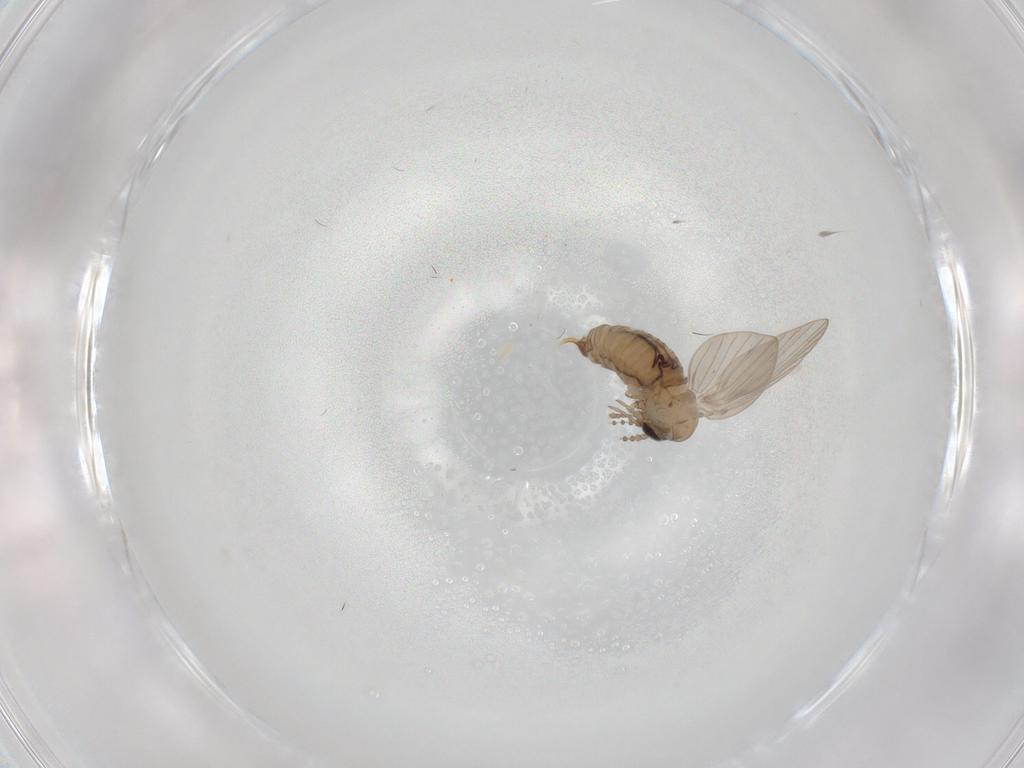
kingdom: Animalia
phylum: Arthropoda
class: Insecta
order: Diptera
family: Psychodidae
